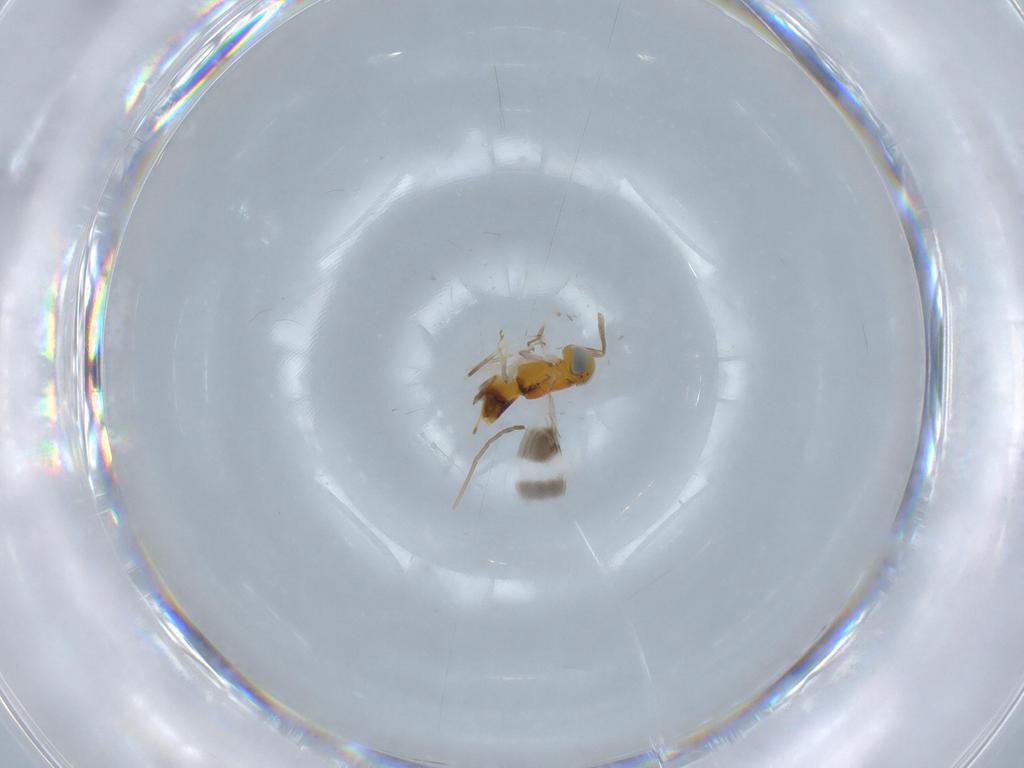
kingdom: Animalia
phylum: Arthropoda
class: Insecta
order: Hymenoptera
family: Encyrtidae
